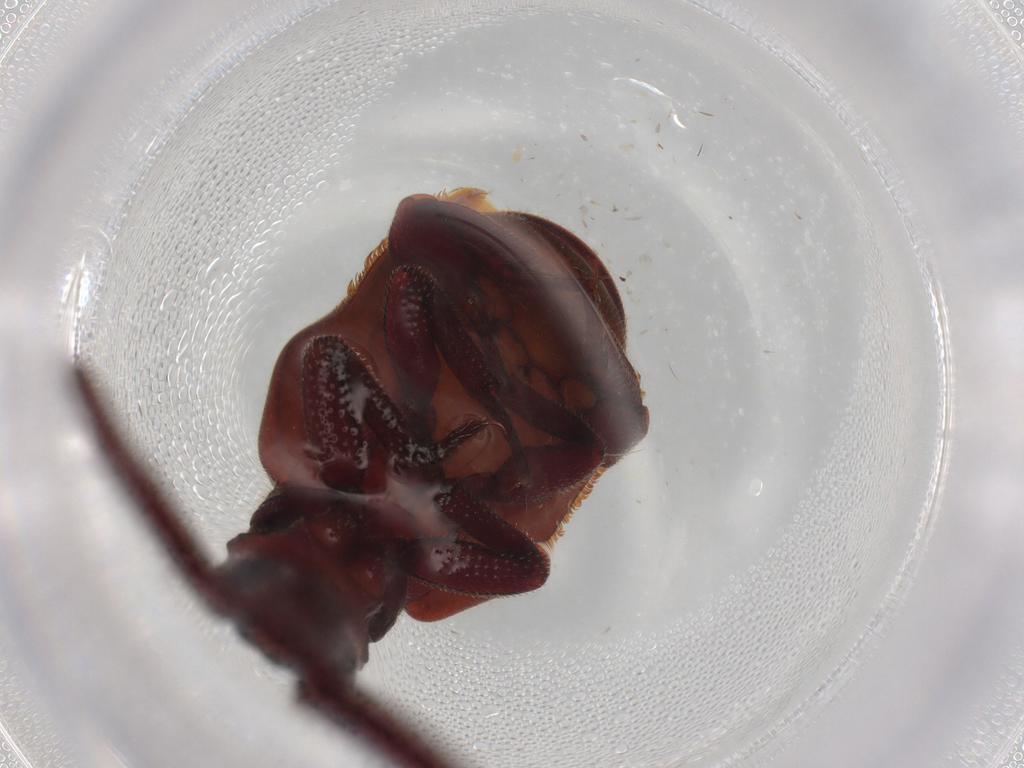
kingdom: Animalia
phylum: Arthropoda
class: Insecta
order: Coleoptera
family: Carabidae
